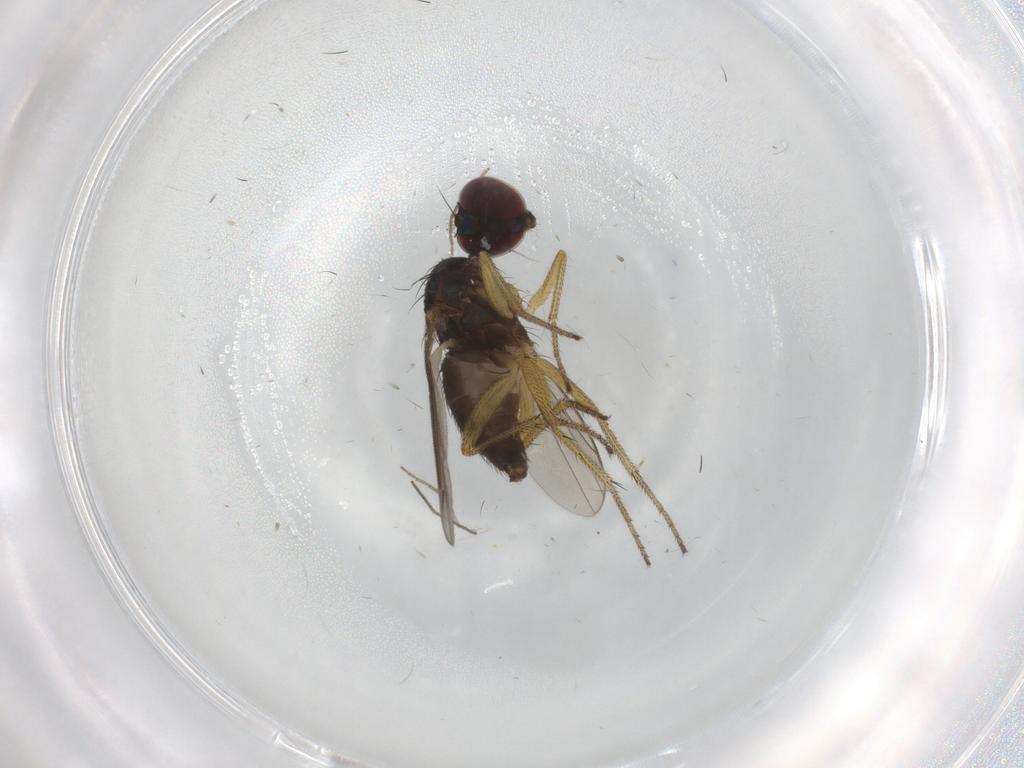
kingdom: Animalia
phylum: Arthropoda
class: Insecta
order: Diptera
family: Dolichopodidae
